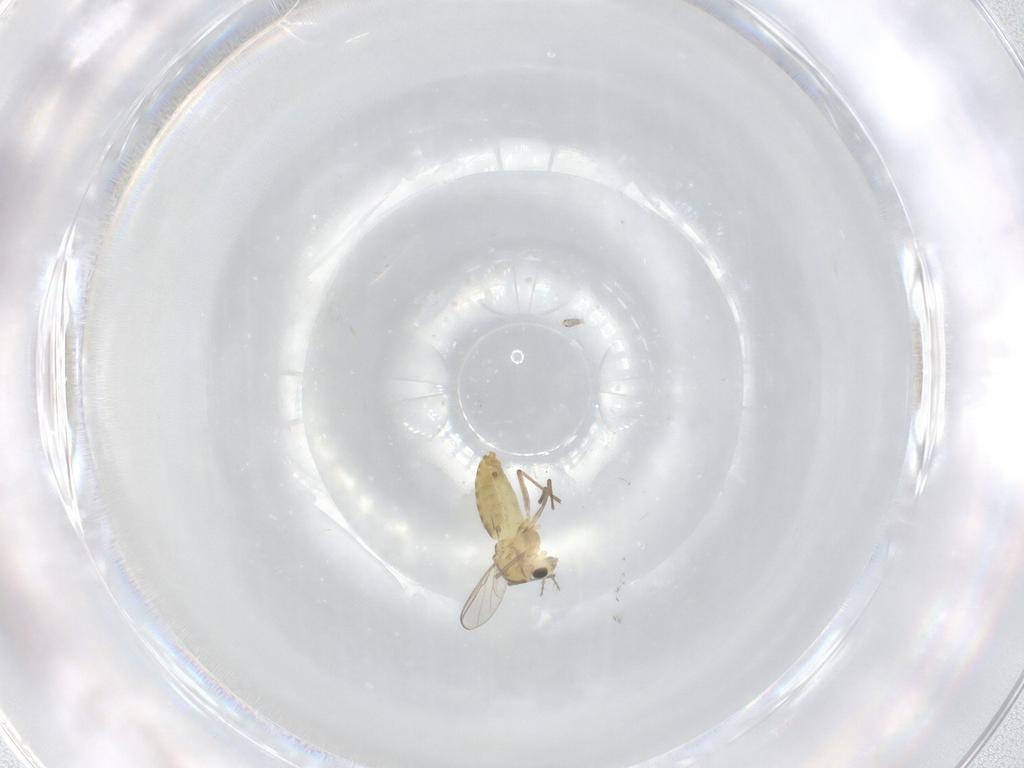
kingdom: Animalia
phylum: Arthropoda
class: Insecta
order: Diptera
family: Chironomidae
